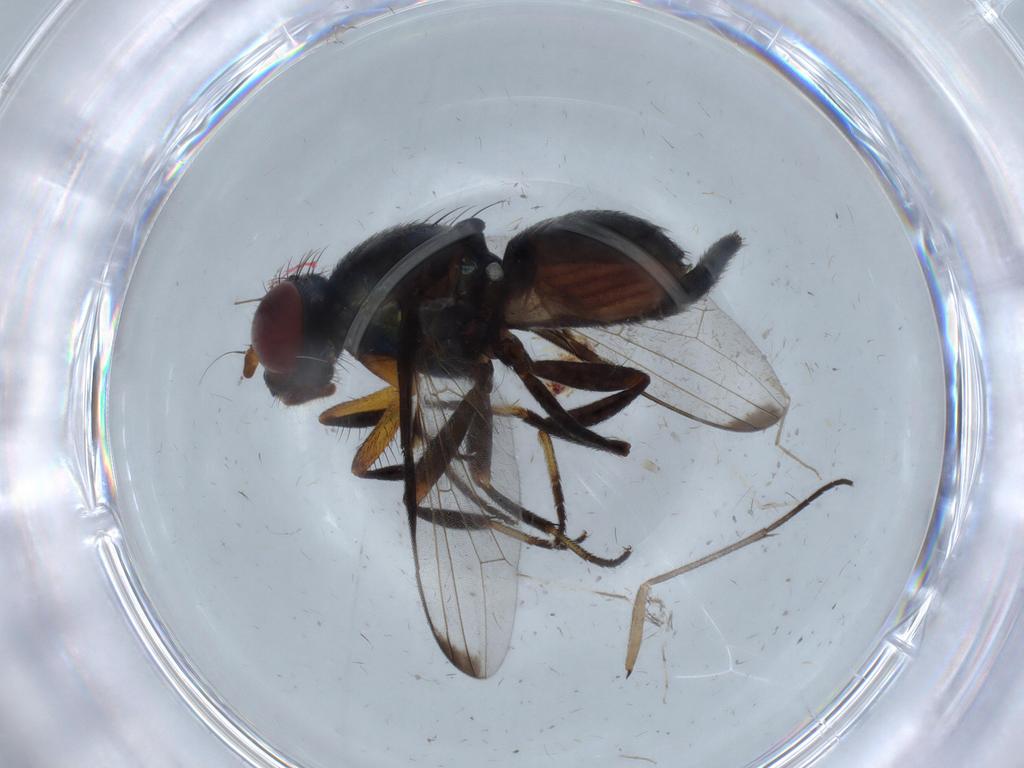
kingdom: Animalia
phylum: Arthropoda
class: Insecta
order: Diptera
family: Ulidiidae
